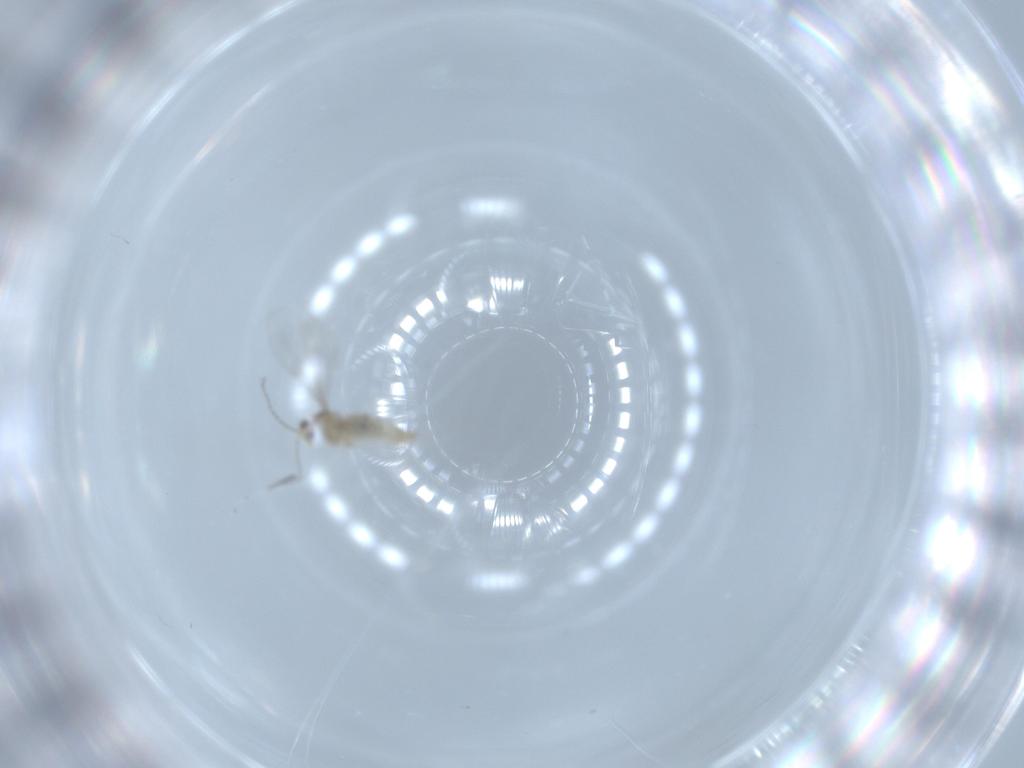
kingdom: Animalia
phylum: Arthropoda
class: Insecta
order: Diptera
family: Cecidomyiidae
